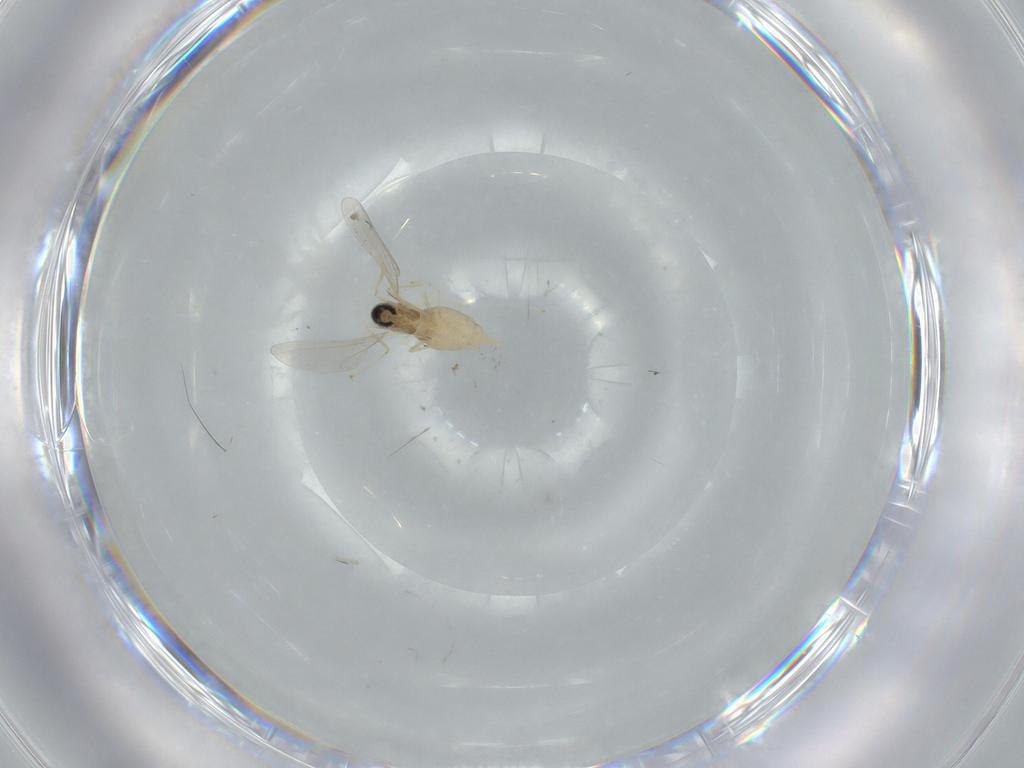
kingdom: Animalia
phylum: Arthropoda
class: Insecta
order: Diptera
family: Cecidomyiidae
